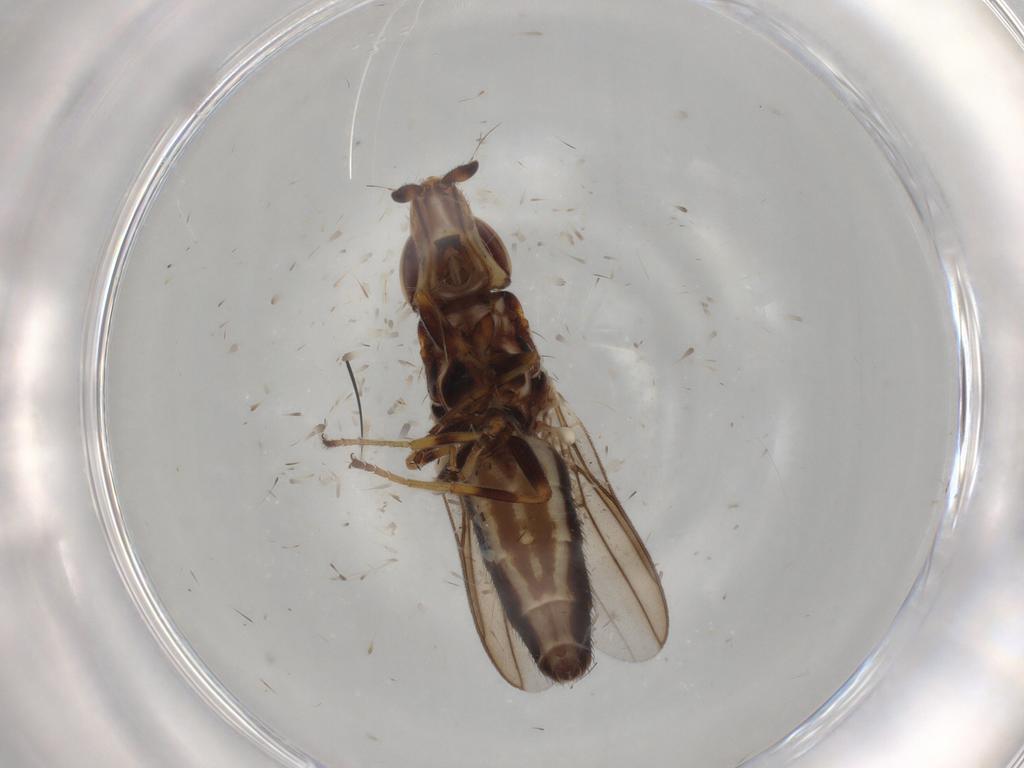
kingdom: Animalia
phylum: Arthropoda
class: Insecta
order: Diptera
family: Chloropidae
